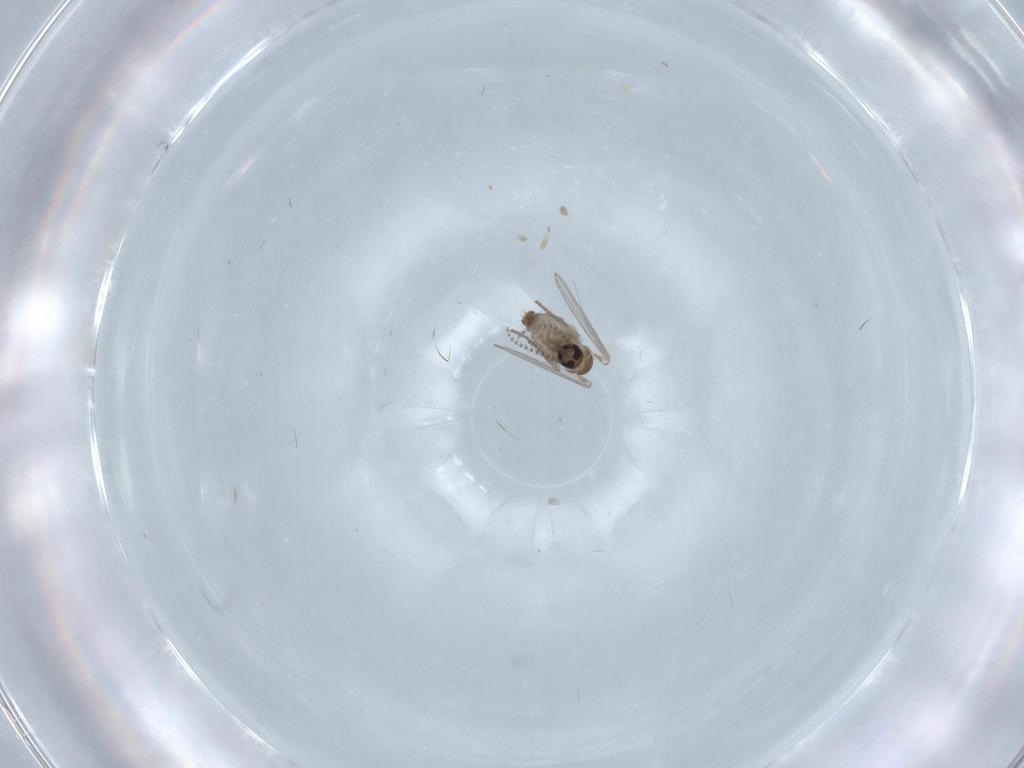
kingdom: Animalia
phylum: Arthropoda
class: Insecta
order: Diptera
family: Psychodidae
